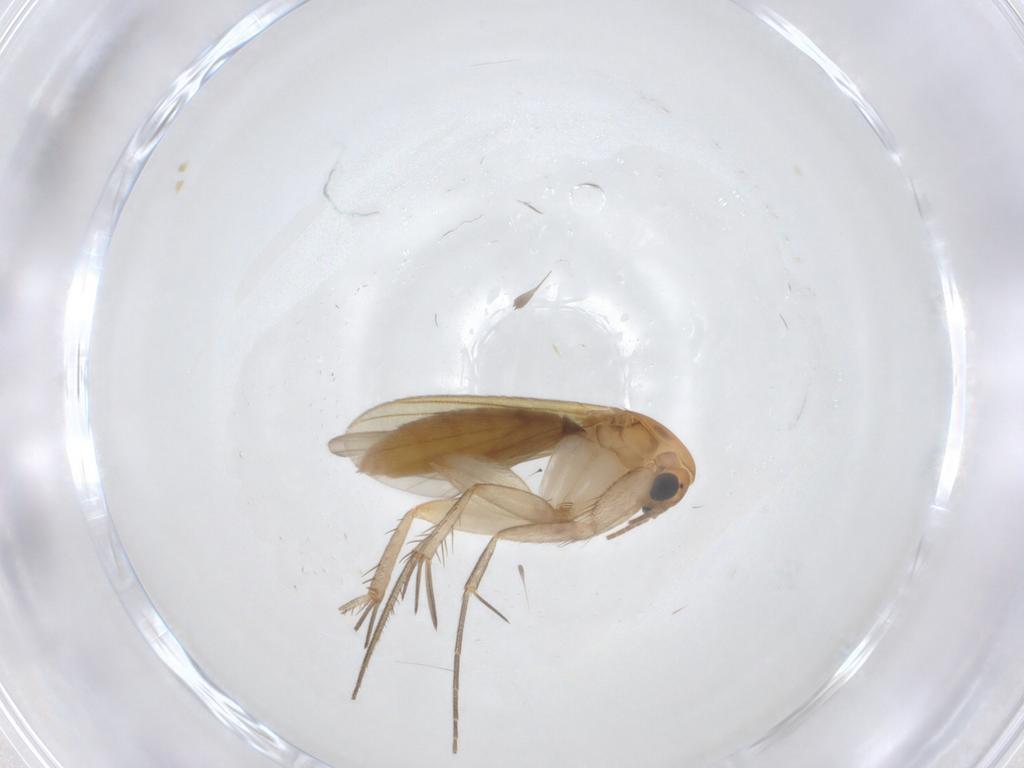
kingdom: Animalia
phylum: Arthropoda
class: Insecta
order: Diptera
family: Mycetophilidae
